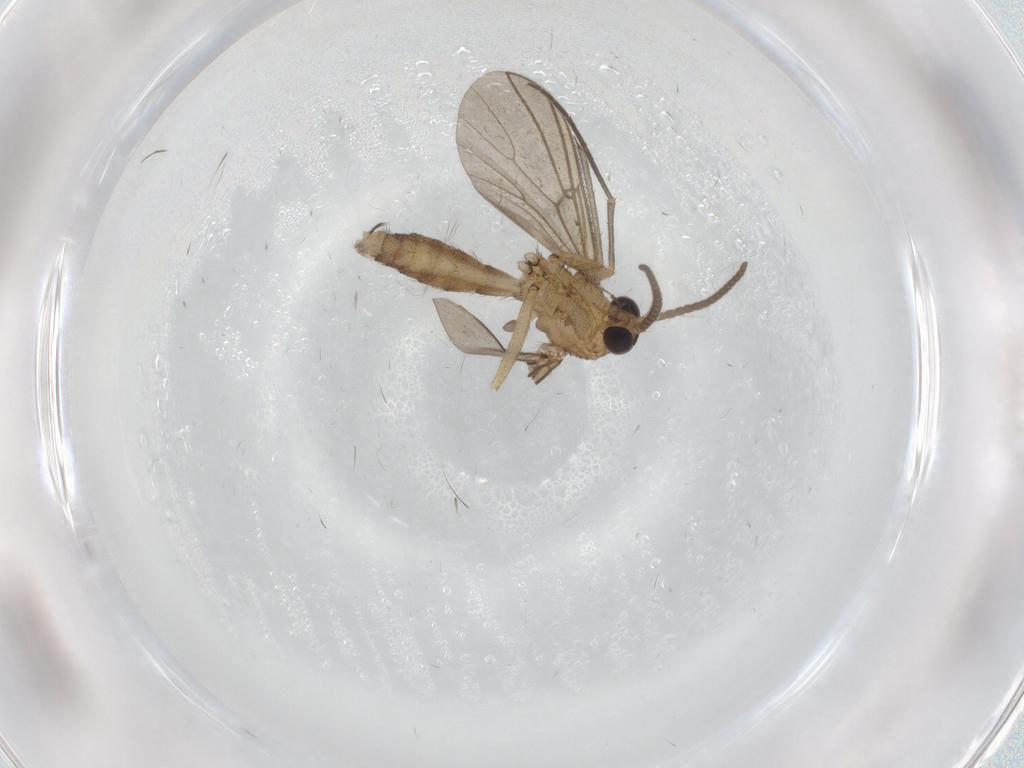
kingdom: Animalia
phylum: Arthropoda
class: Insecta
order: Diptera
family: Mycetophilidae
